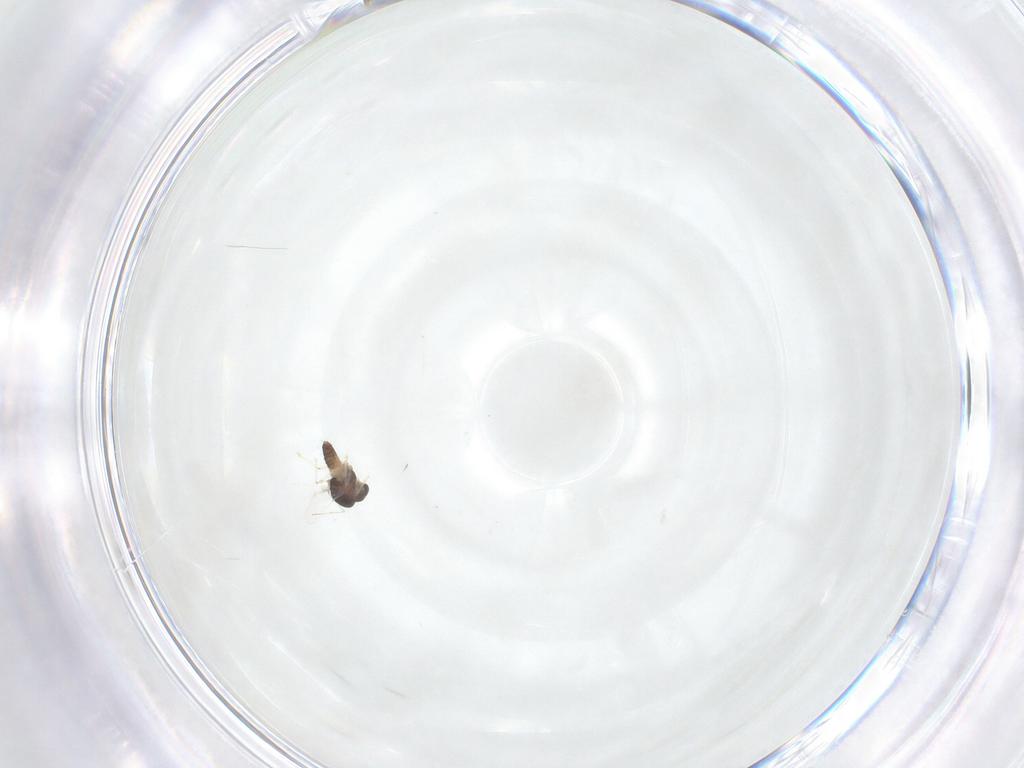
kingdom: Animalia
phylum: Arthropoda
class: Insecta
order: Diptera
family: Chironomidae
